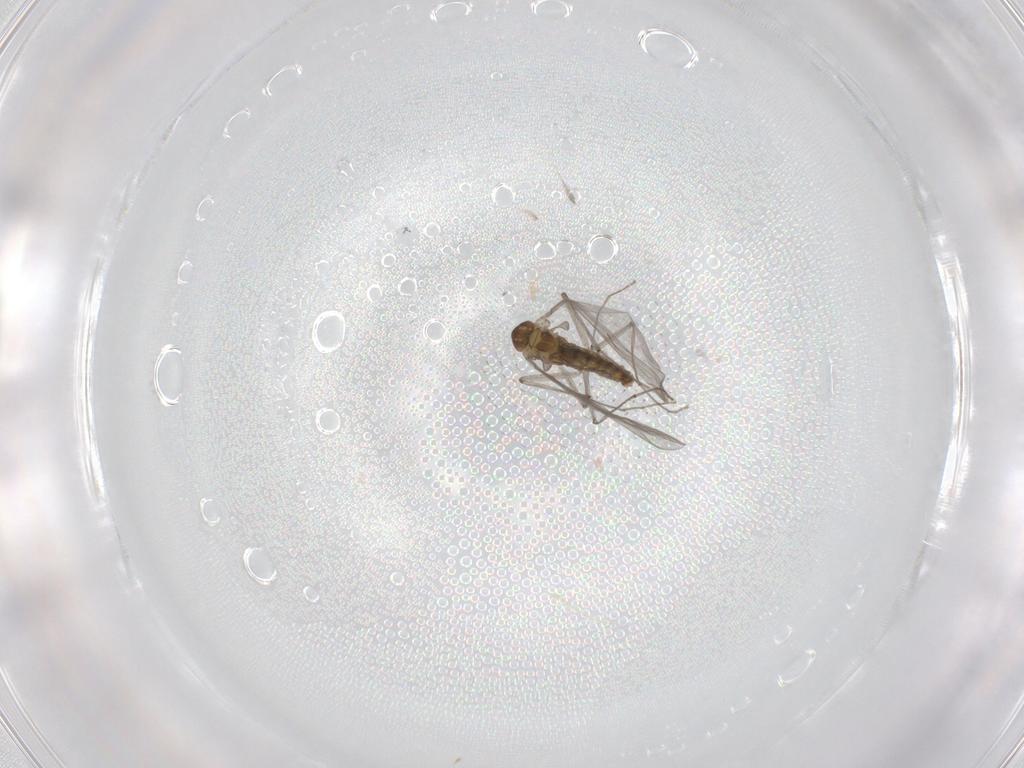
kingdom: Animalia
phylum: Arthropoda
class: Insecta
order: Diptera
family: Chironomidae
